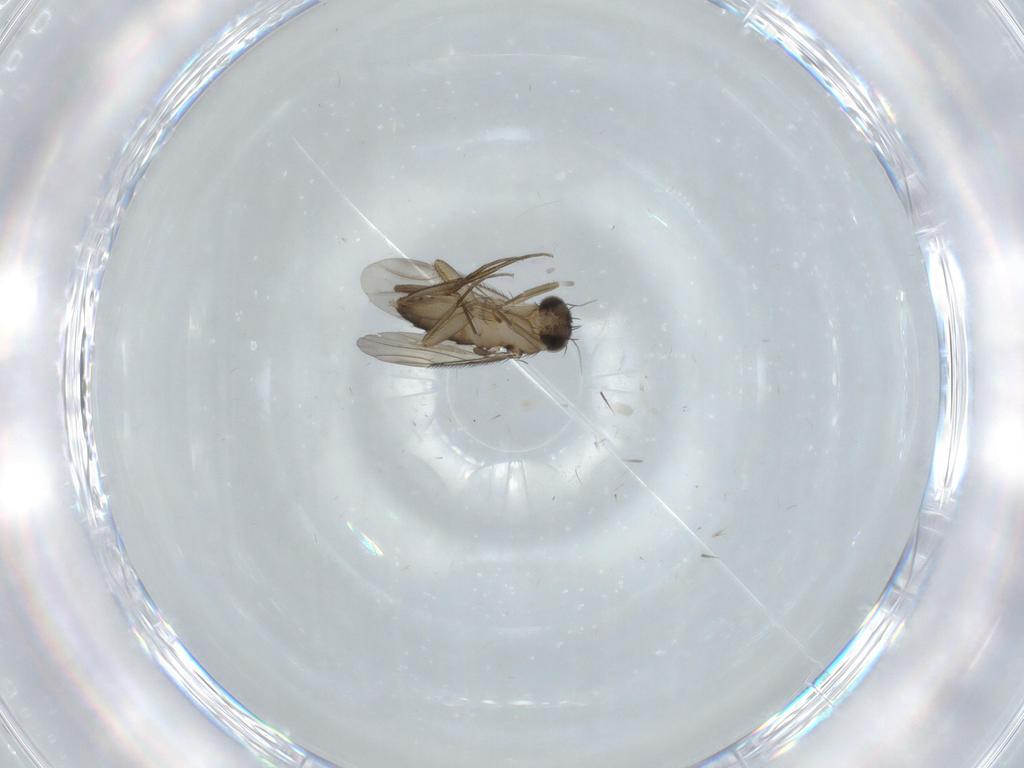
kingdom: Animalia
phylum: Arthropoda
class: Insecta
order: Diptera
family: Phoridae
